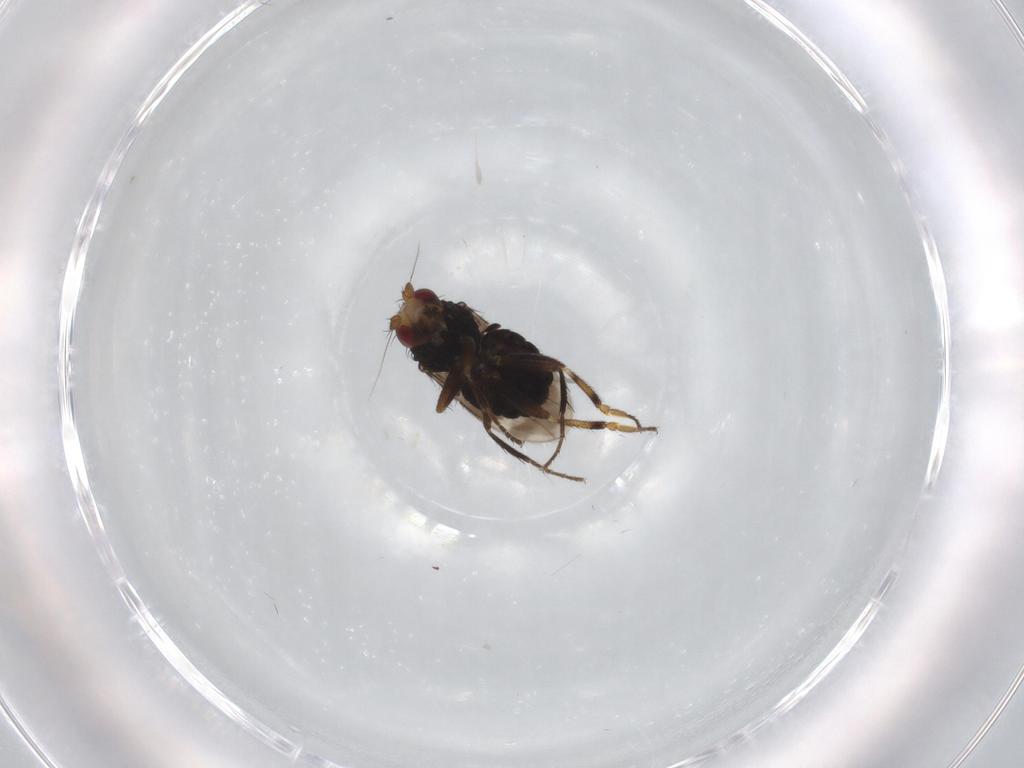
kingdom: Animalia
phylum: Arthropoda
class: Insecta
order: Diptera
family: Sphaeroceridae
